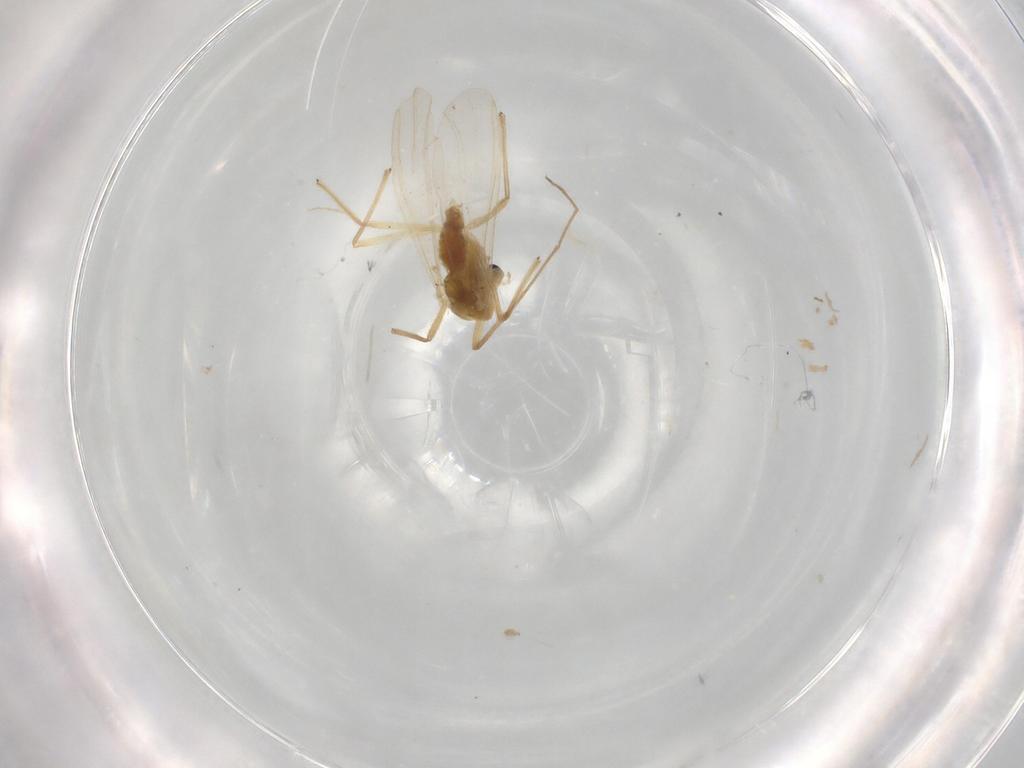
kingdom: Animalia
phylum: Arthropoda
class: Insecta
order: Diptera
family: Chironomidae
